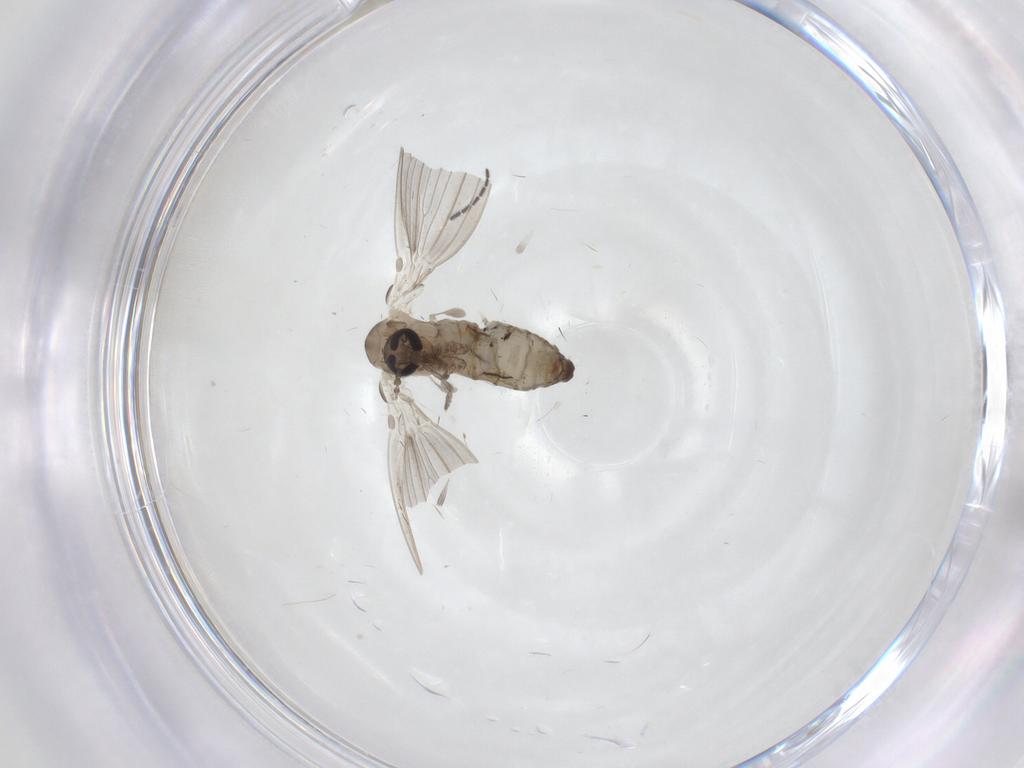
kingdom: Animalia
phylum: Arthropoda
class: Insecta
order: Diptera
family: Psychodidae
